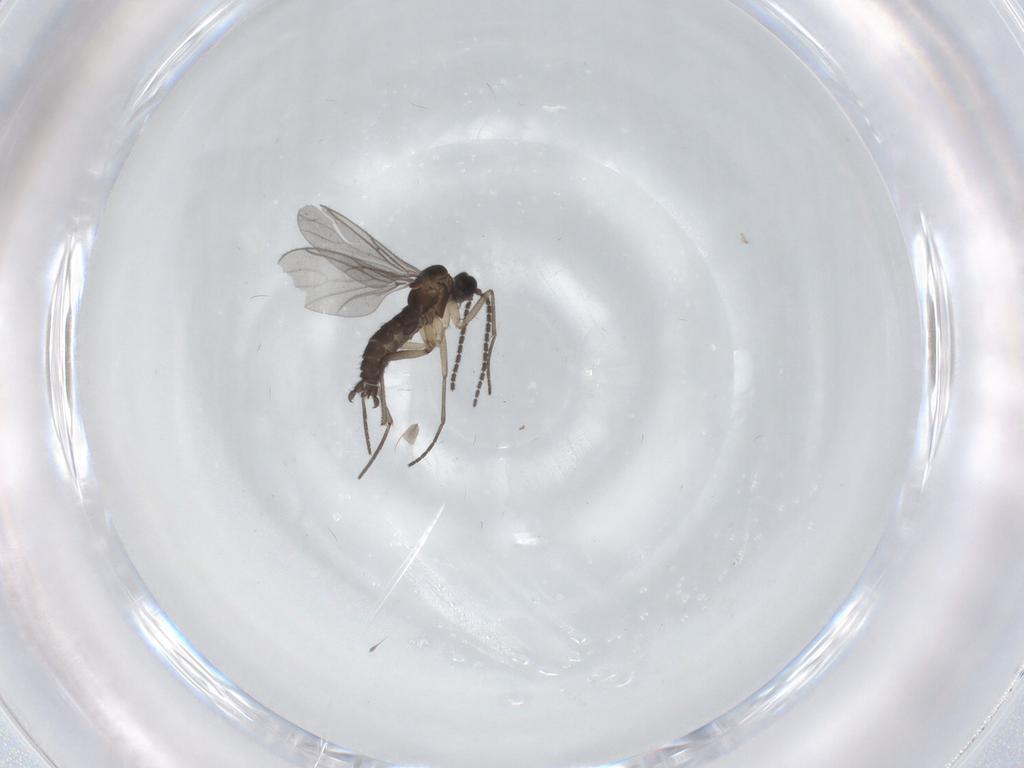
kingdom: Animalia
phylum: Arthropoda
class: Insecta
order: Diptera
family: Sciaridae
